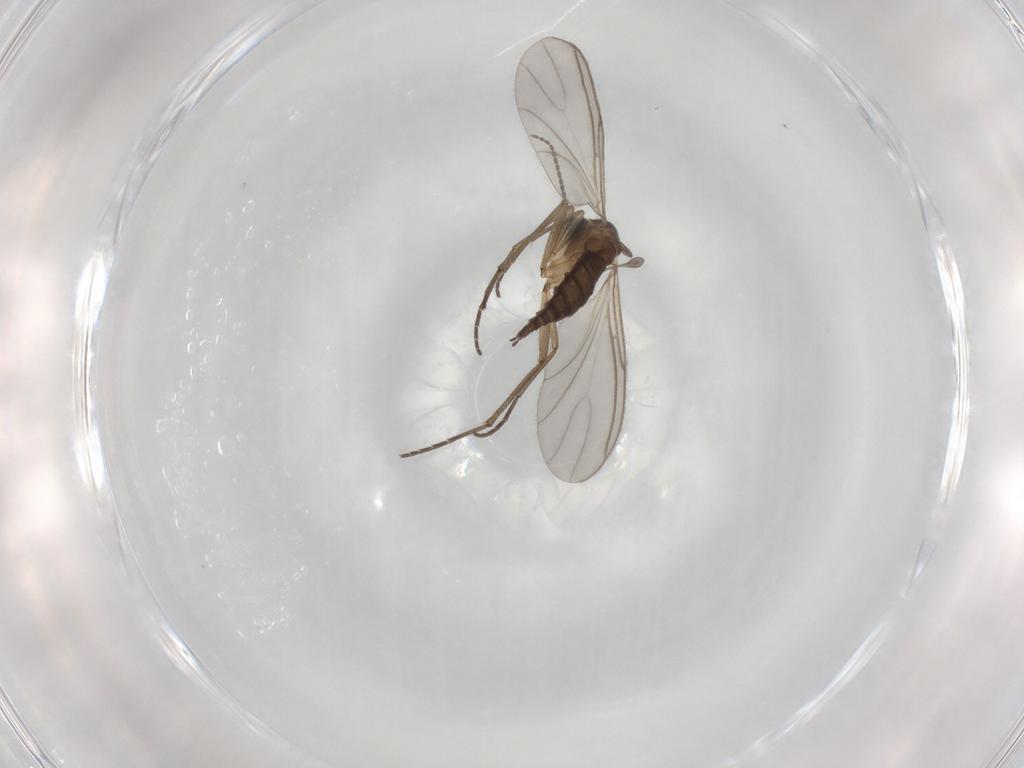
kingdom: Animalia
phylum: Arthropoda
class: Insecta
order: Diptera
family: Sciaridae
